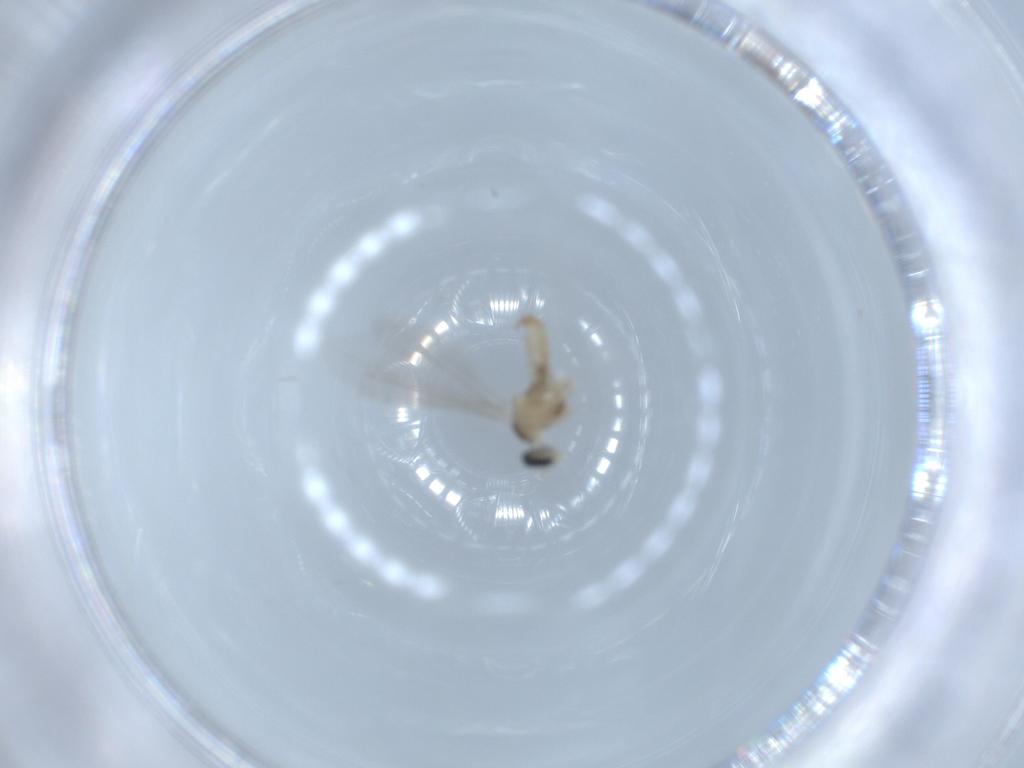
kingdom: Animalia
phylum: Arthropoda
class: Insecta
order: Diptera
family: Cecidomyiidae
